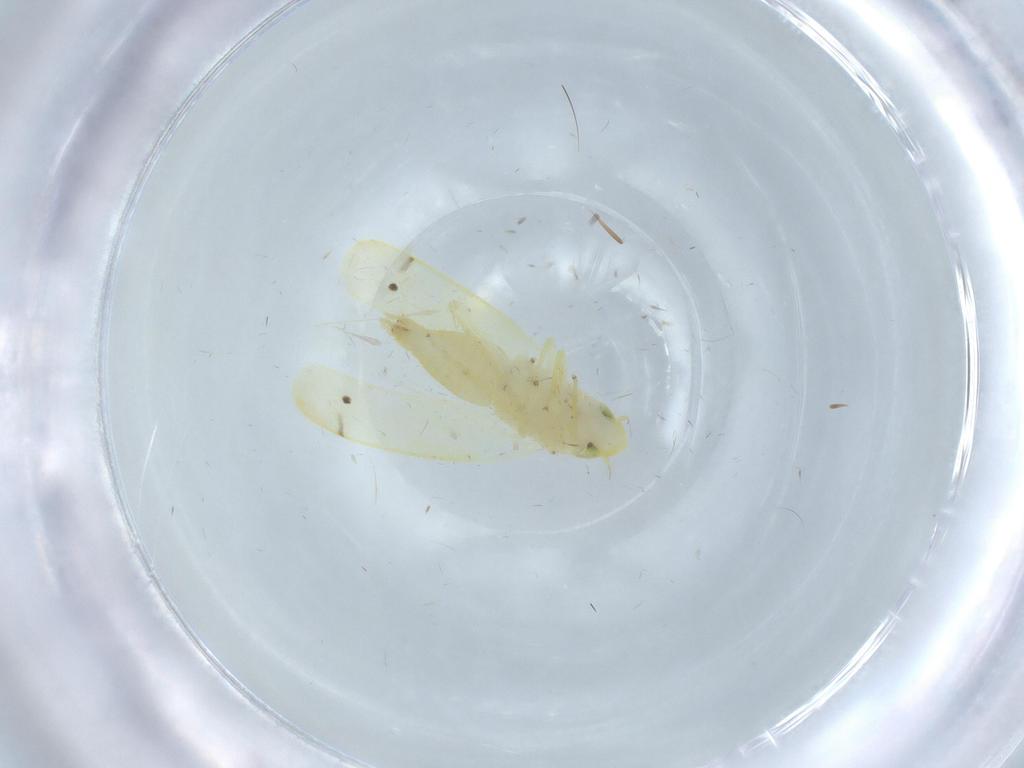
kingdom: Animalia
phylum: Arthropoda
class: Insecta
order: Hemiptera
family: Cicadellidae
